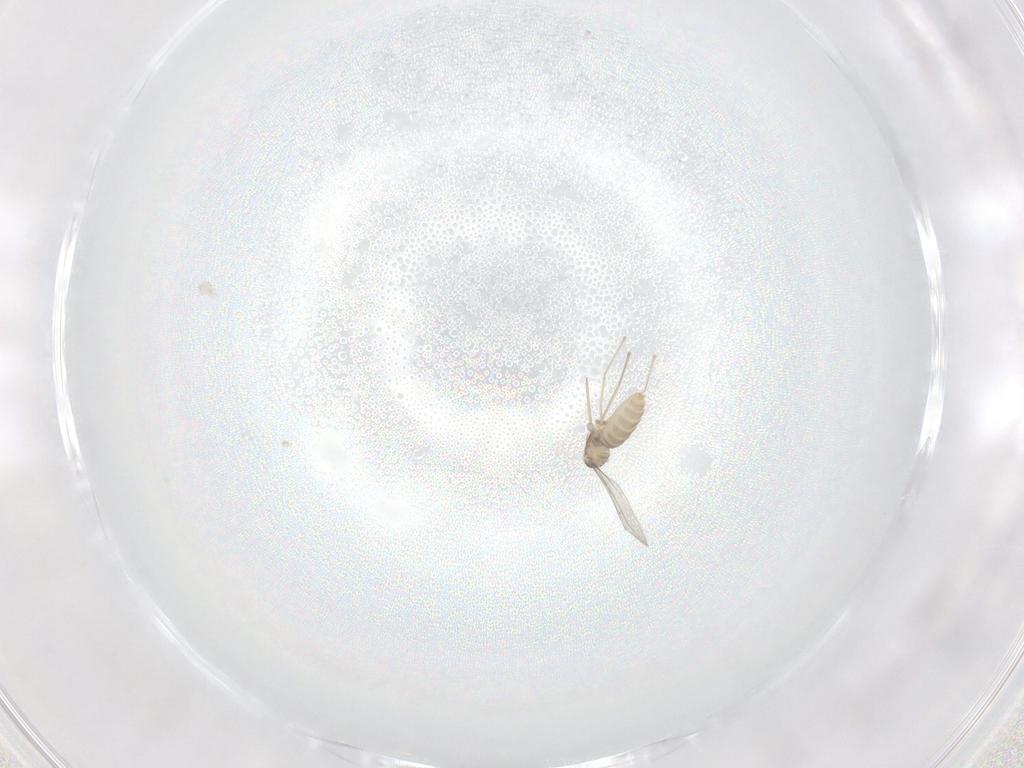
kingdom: Animalia
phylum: Arthropoda
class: Insecta
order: Diptera
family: Cecidomyiidae
